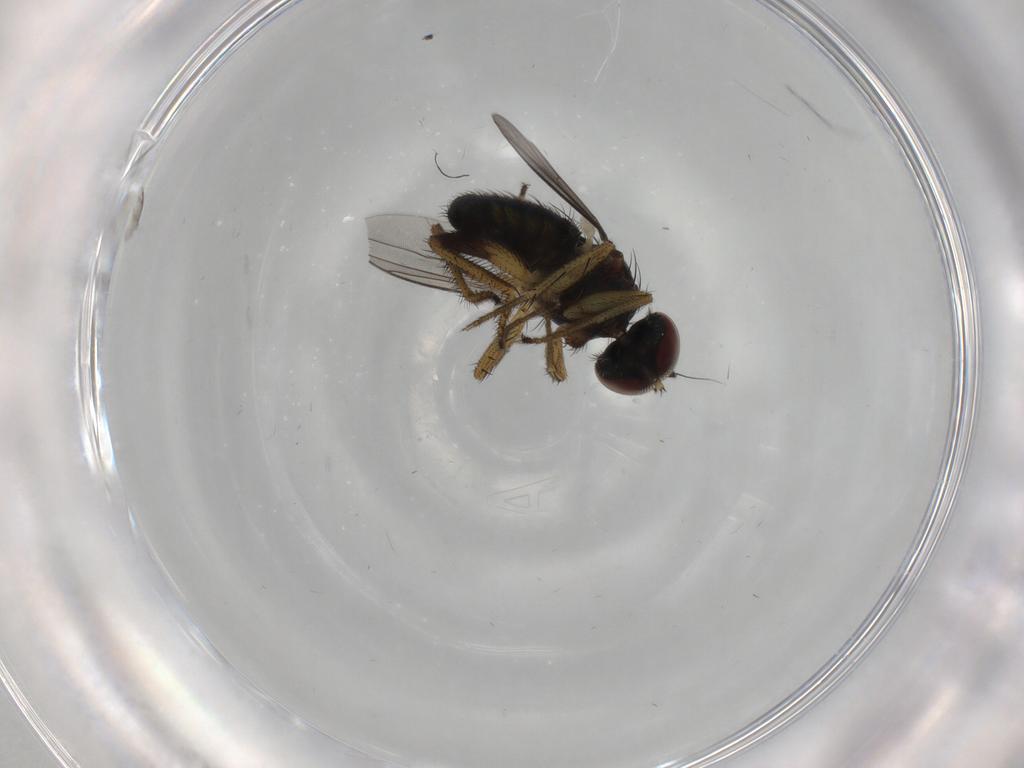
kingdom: Animalia
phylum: Arthropoda
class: Insecta
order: Diptera
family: Dolichopodidae
